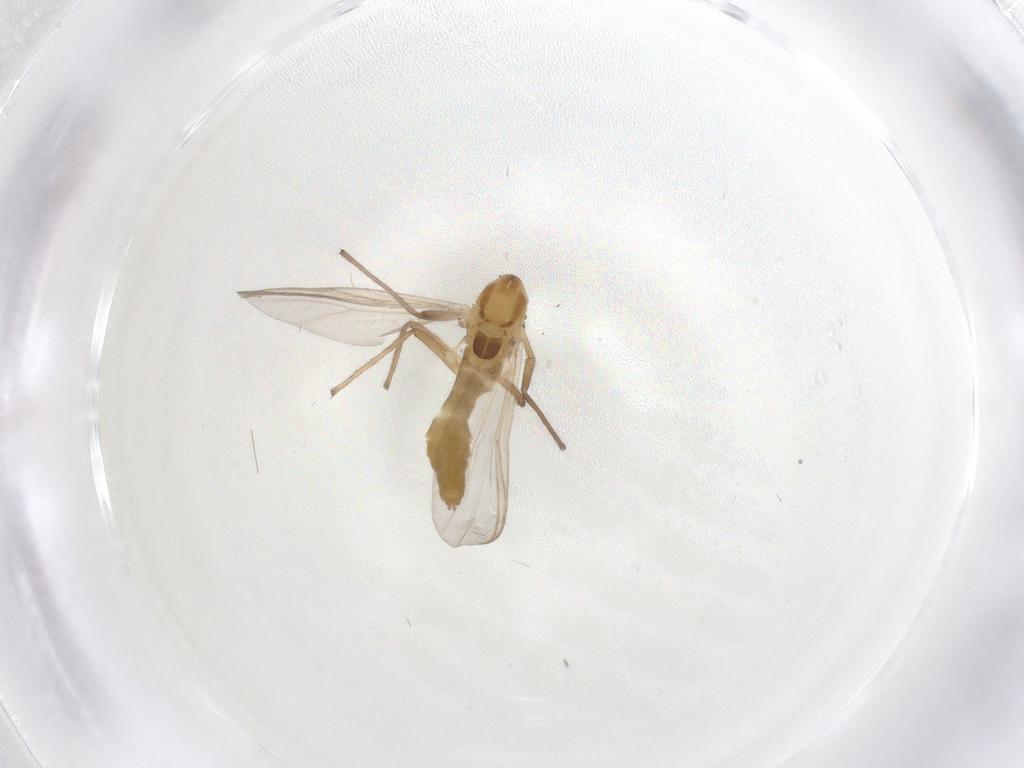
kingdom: Animalia
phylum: Arthropoda
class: Insecta
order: Diptera
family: Chironomidae
